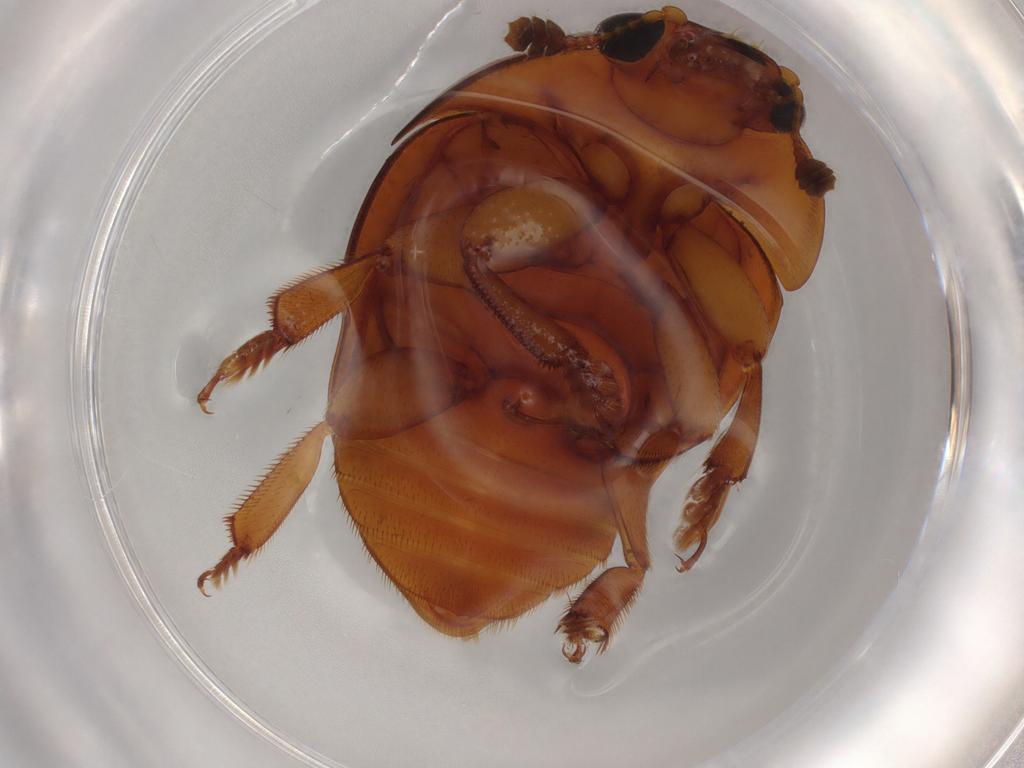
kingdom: Animalia
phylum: Arthropoda
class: Insecta
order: Coleoptera
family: Nitidulidae
